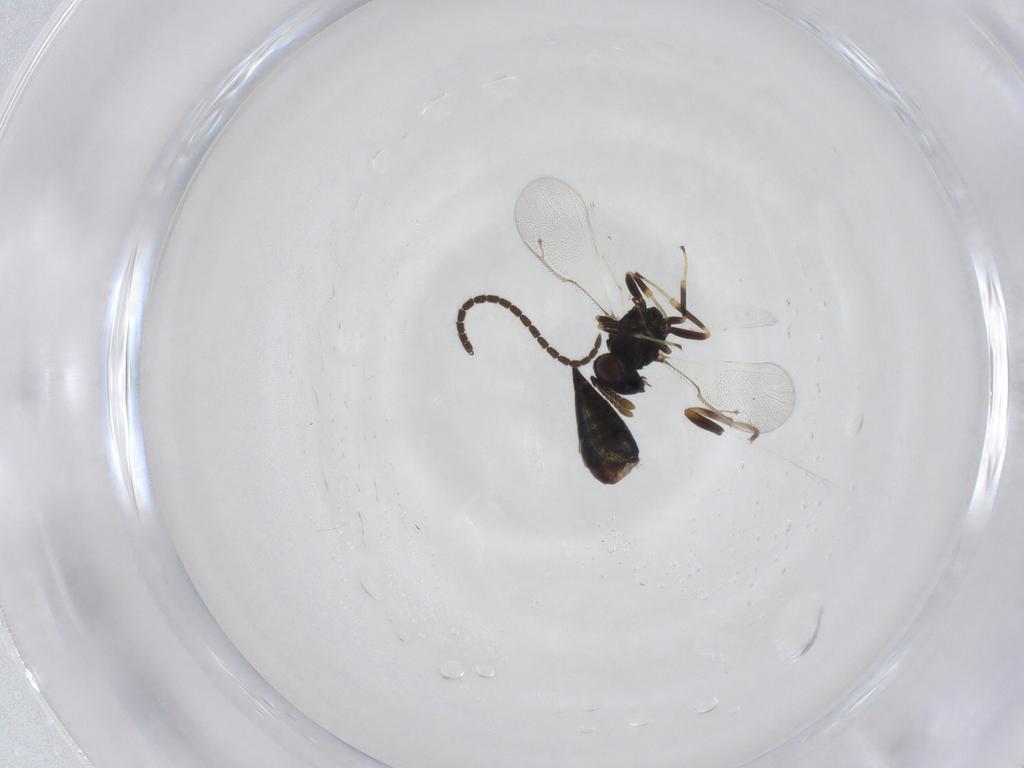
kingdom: Animalia
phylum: Arthropoda
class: Insecta
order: Hymenoptera
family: Pteromalidae
